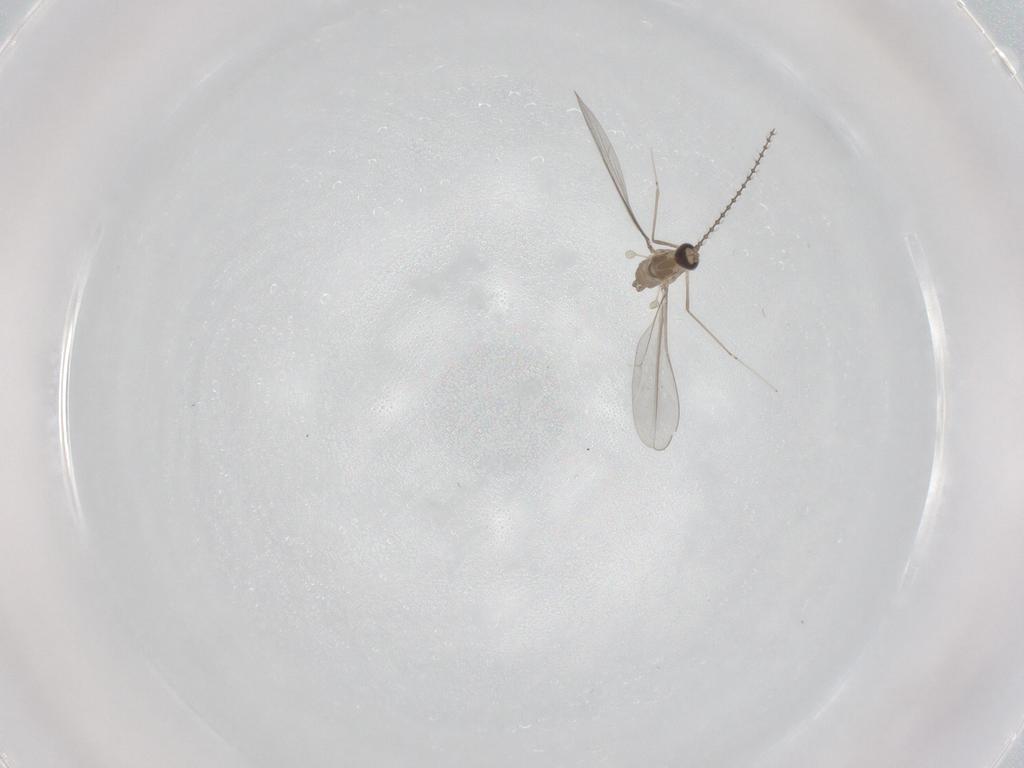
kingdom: Animalia
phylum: Arthropoda
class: Insecta
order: Diptera
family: Cecidomyiidae
